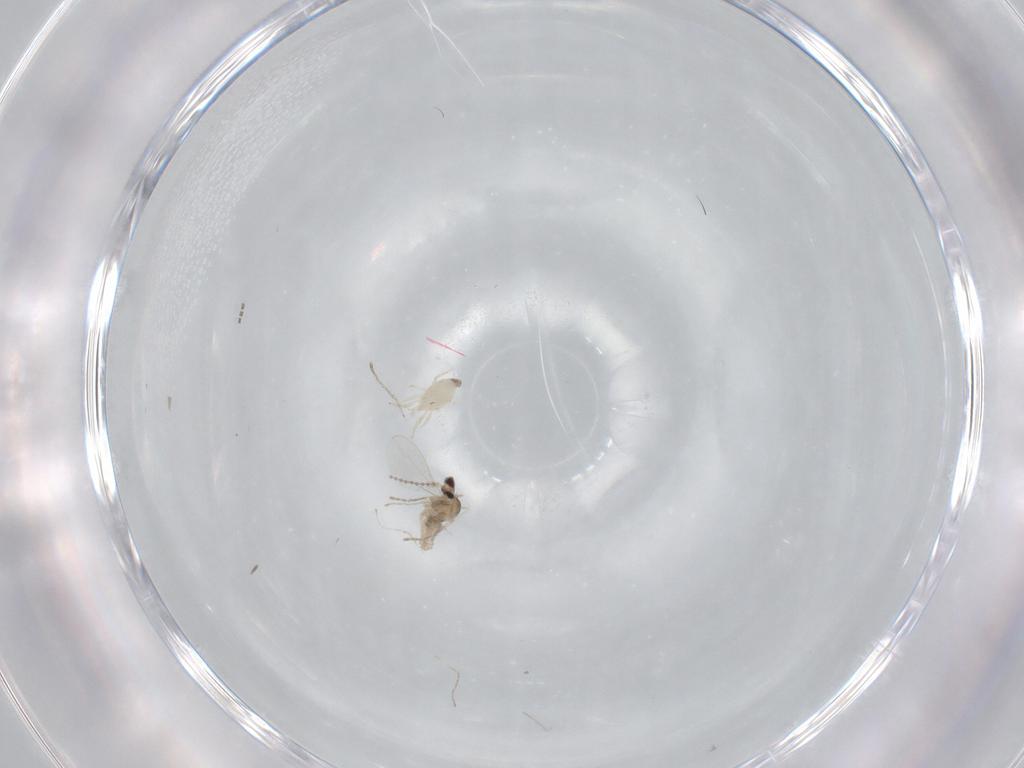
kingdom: Animalia
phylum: Arthropoda
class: Insecta
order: Diptera
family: Cecidomyiidae
